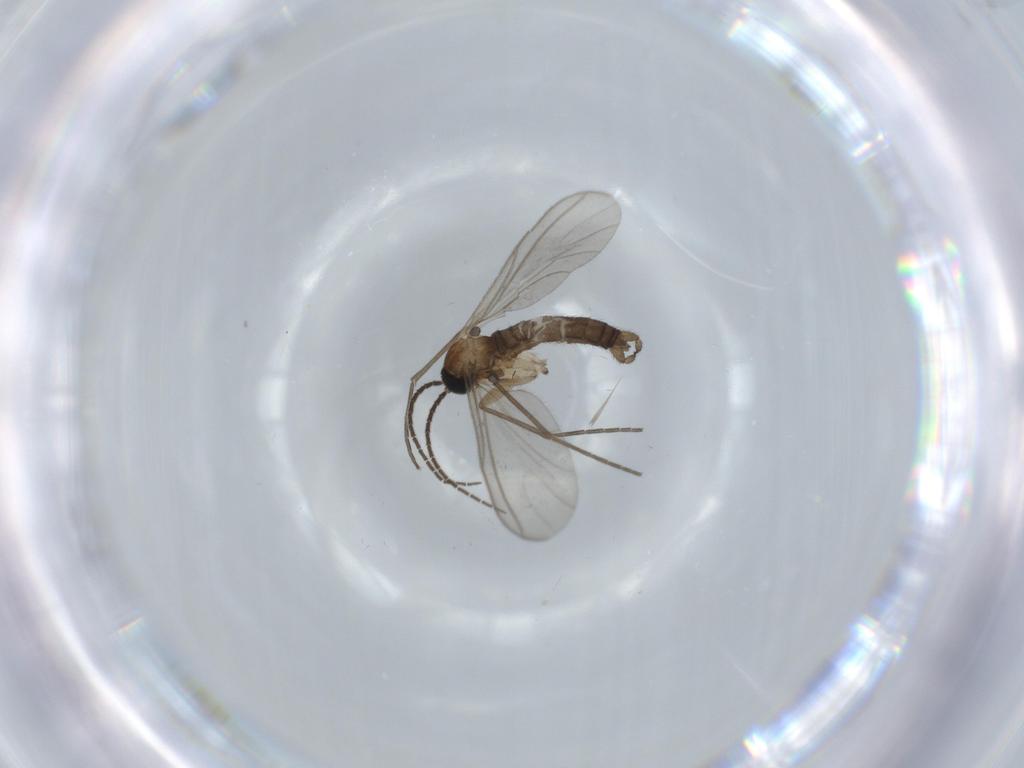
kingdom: Animalia
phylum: Arthropoda
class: Insecta
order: Diptera
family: Sciaridae
